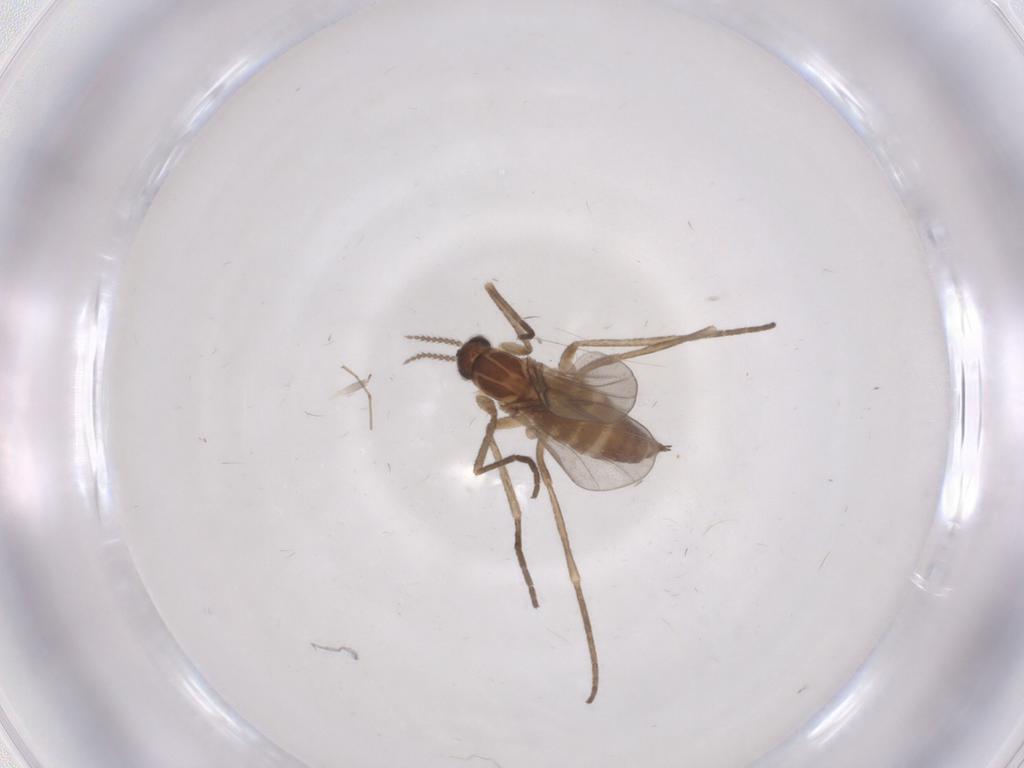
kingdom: Animalia
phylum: Arthropoda
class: Insecta
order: Diptera
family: Cecidomyiidae
